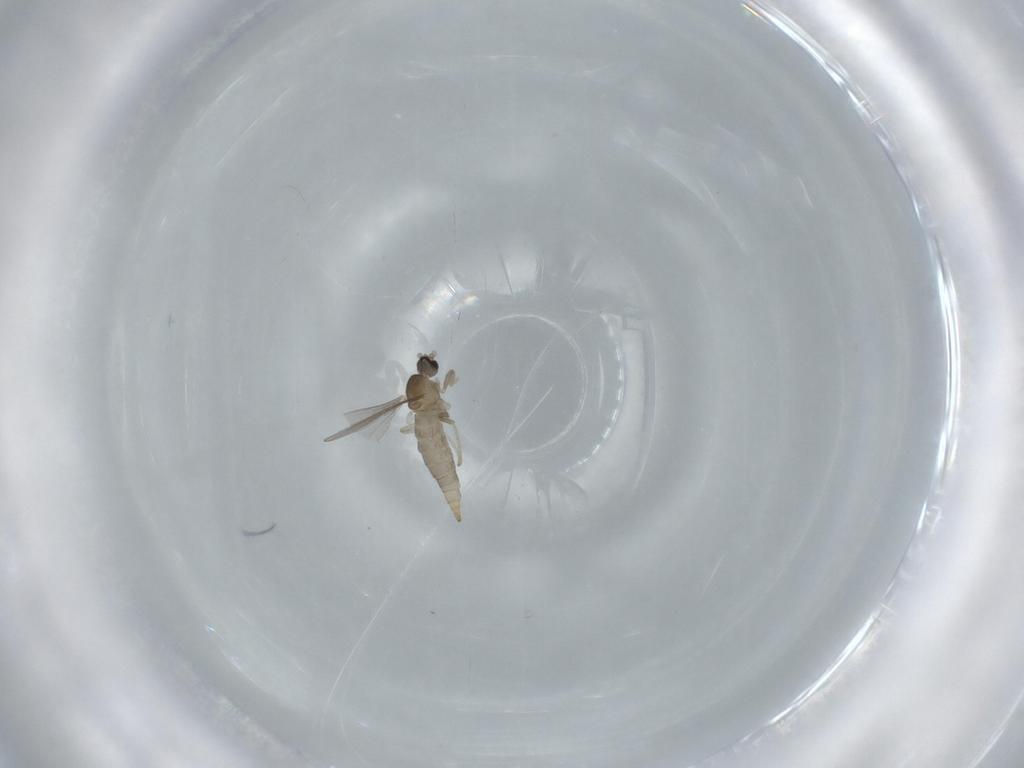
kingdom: Animalia
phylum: Arthropoda
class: Insecta
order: Diptera
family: Cecidomyiidae
